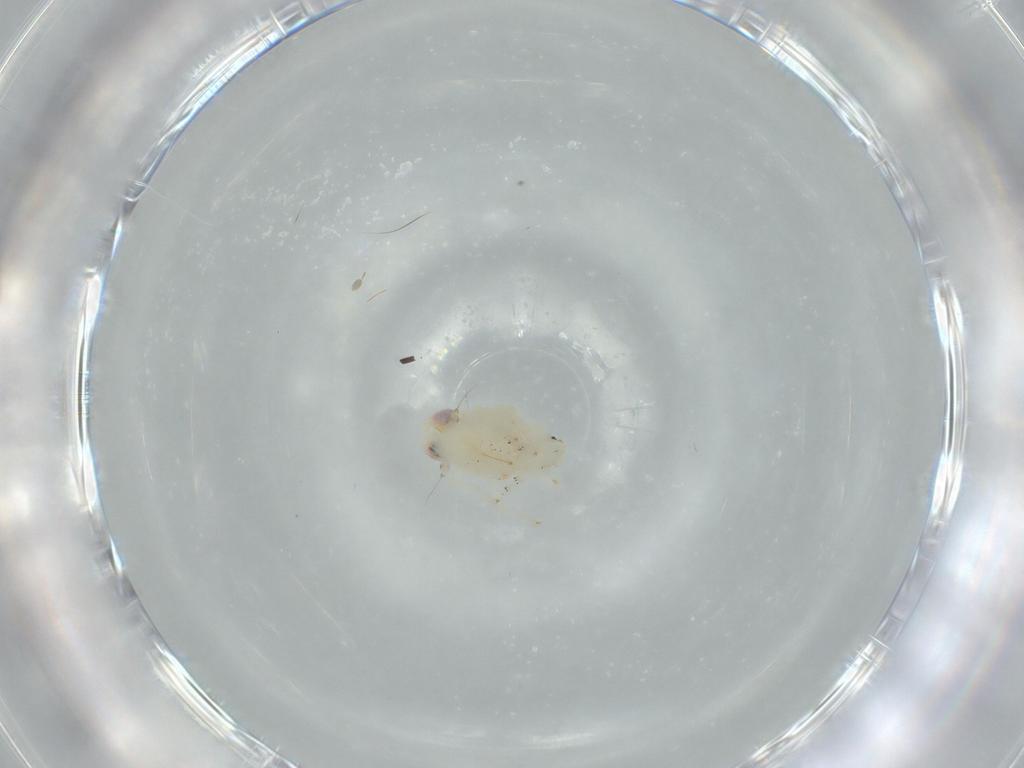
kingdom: Animalia
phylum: Arthropoda
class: Insecta
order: Hemiptera
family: Nogodinidae
